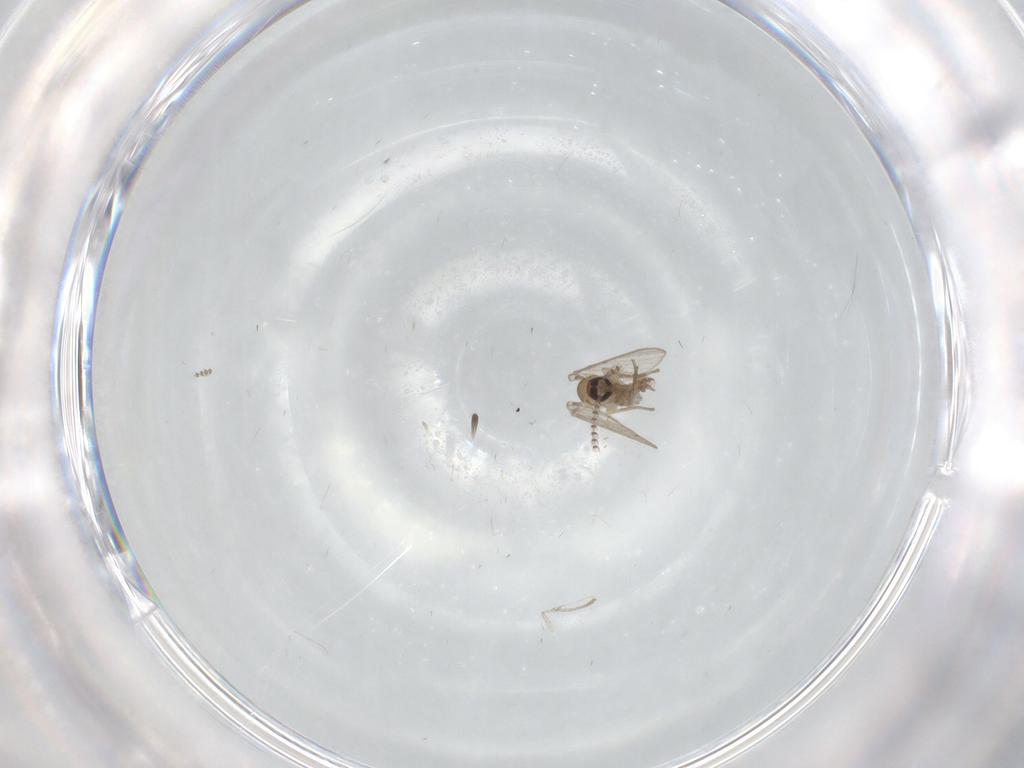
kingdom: Animalia
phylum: Arthropoda
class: Insecta
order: Diptera
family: Psychodidae
